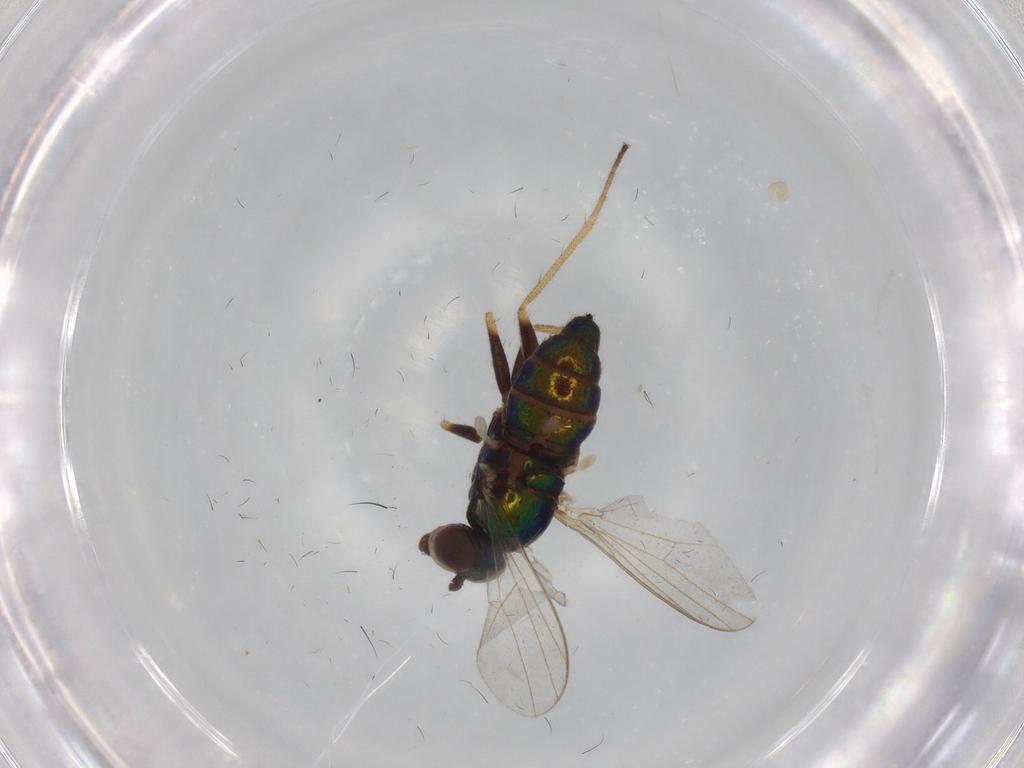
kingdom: Animalia
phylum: Arthropoda
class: Insecta
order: Diptera
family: Dolichopodidae
